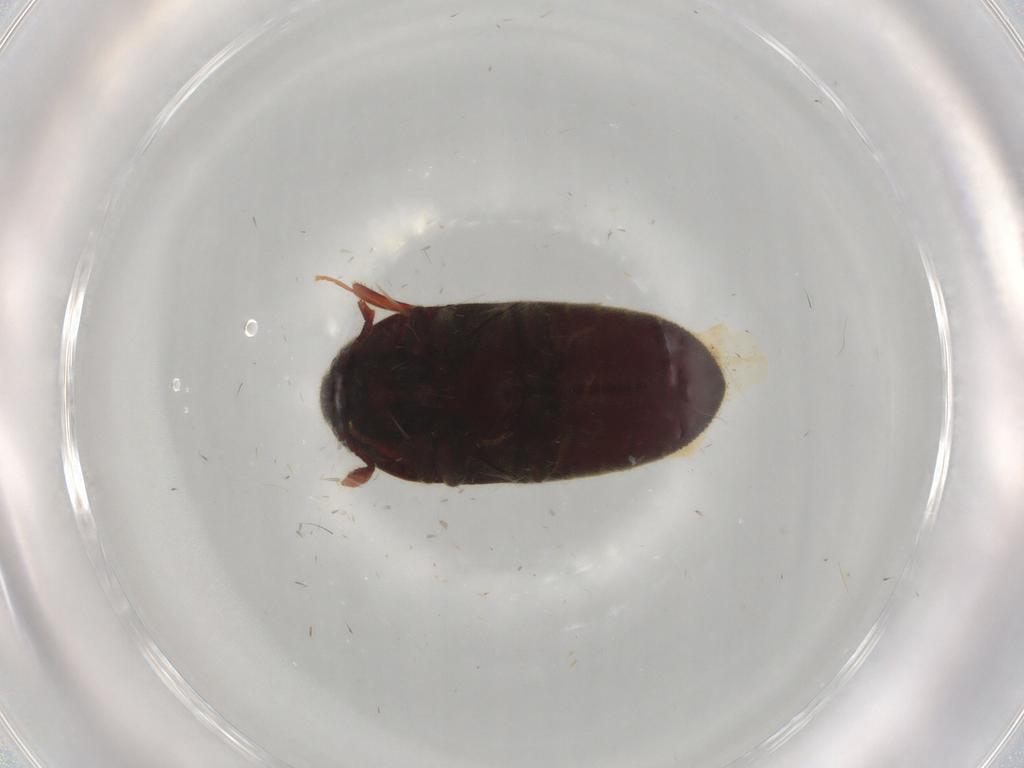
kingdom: Animalia
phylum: Arthropoda
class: Insecta
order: Coleoptera
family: Throscidae
